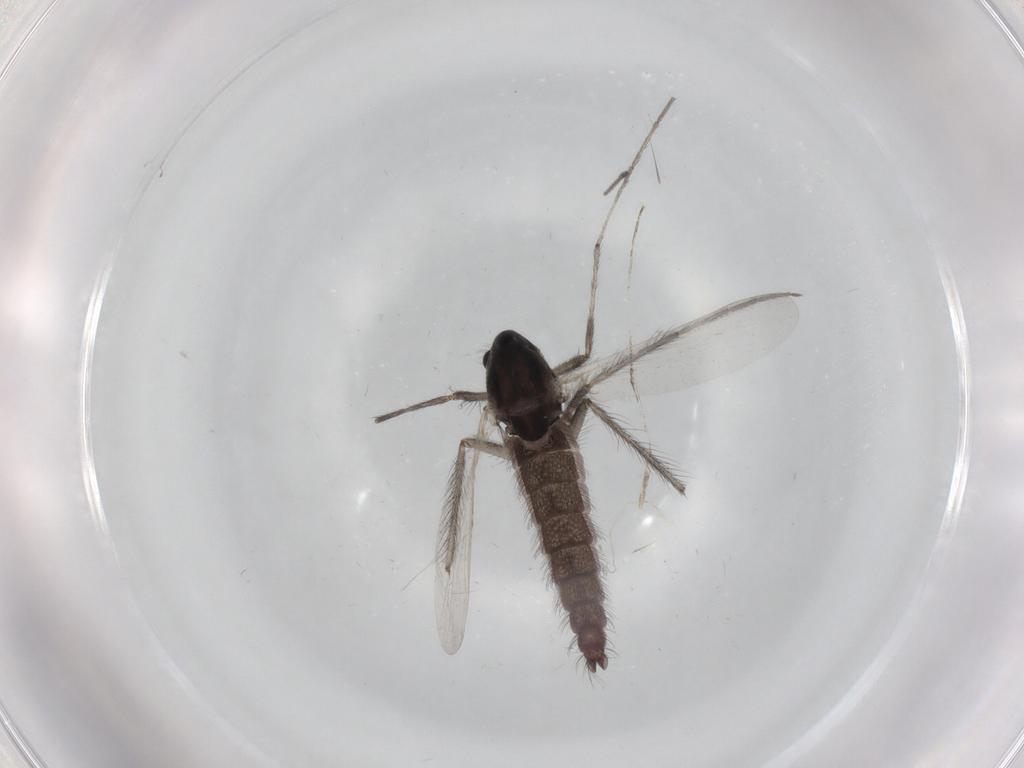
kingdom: Animalia
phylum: Arthropoda
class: Insecta
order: Diptera
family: Chironomidae
